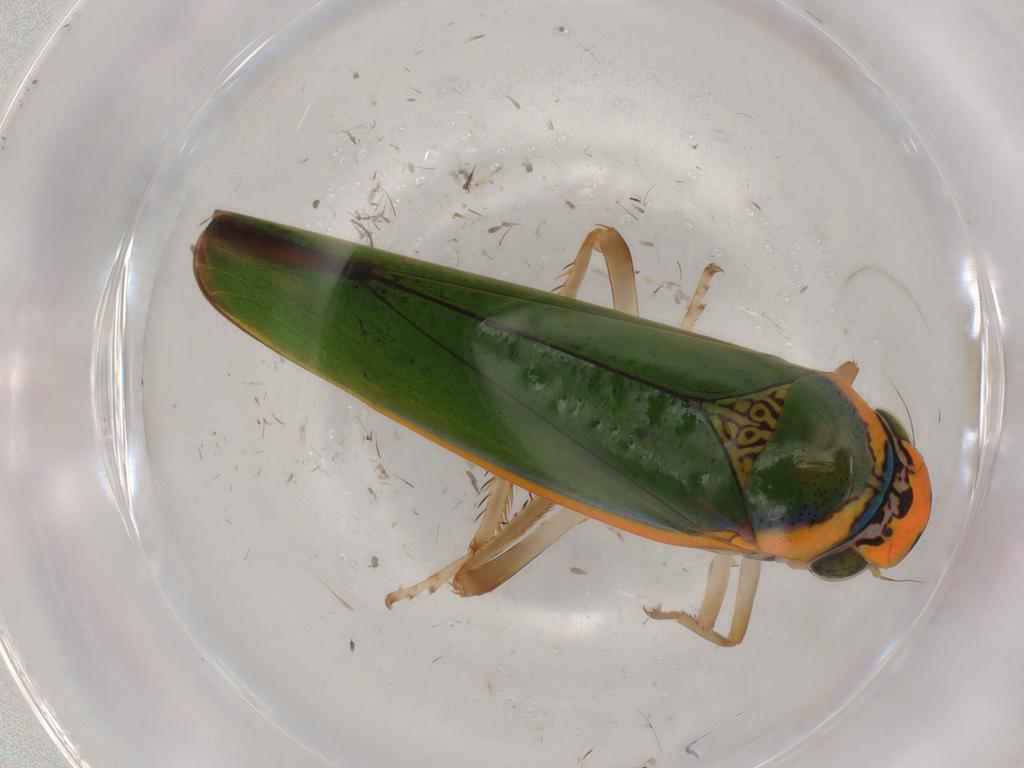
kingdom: Animalia
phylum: Arthropoda
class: Insecta
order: Hemiptera
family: Cicadellidae
